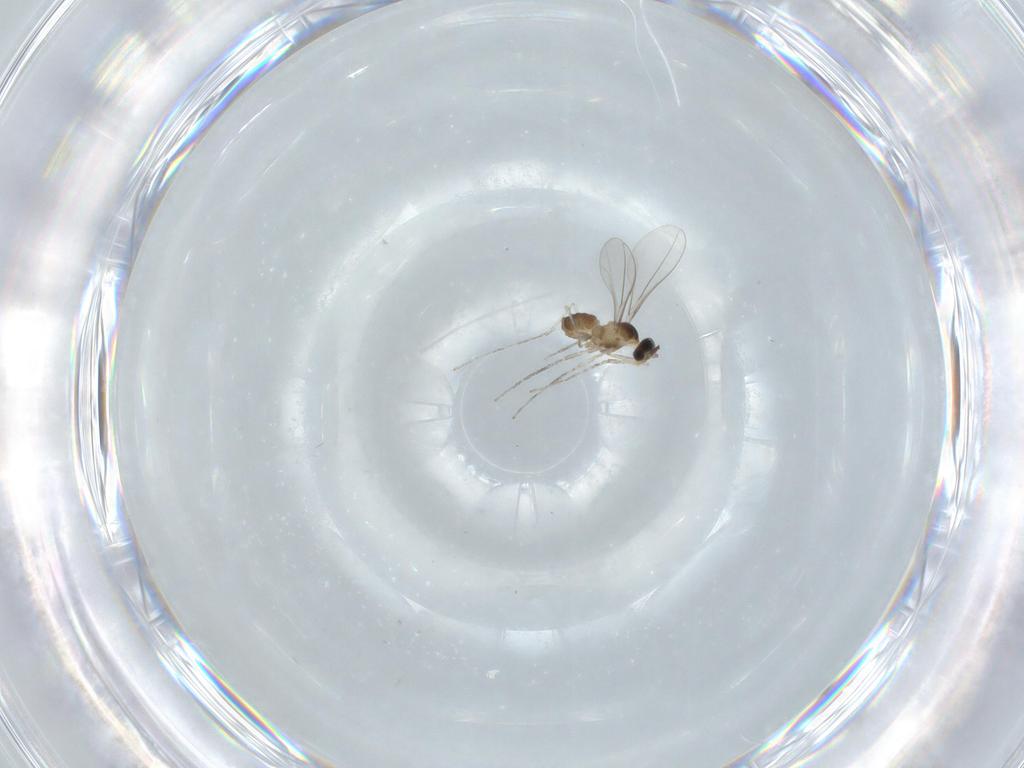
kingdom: Animalia
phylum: Arthropoda
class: Insecta
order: Diptera
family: Cecidomyiidae
